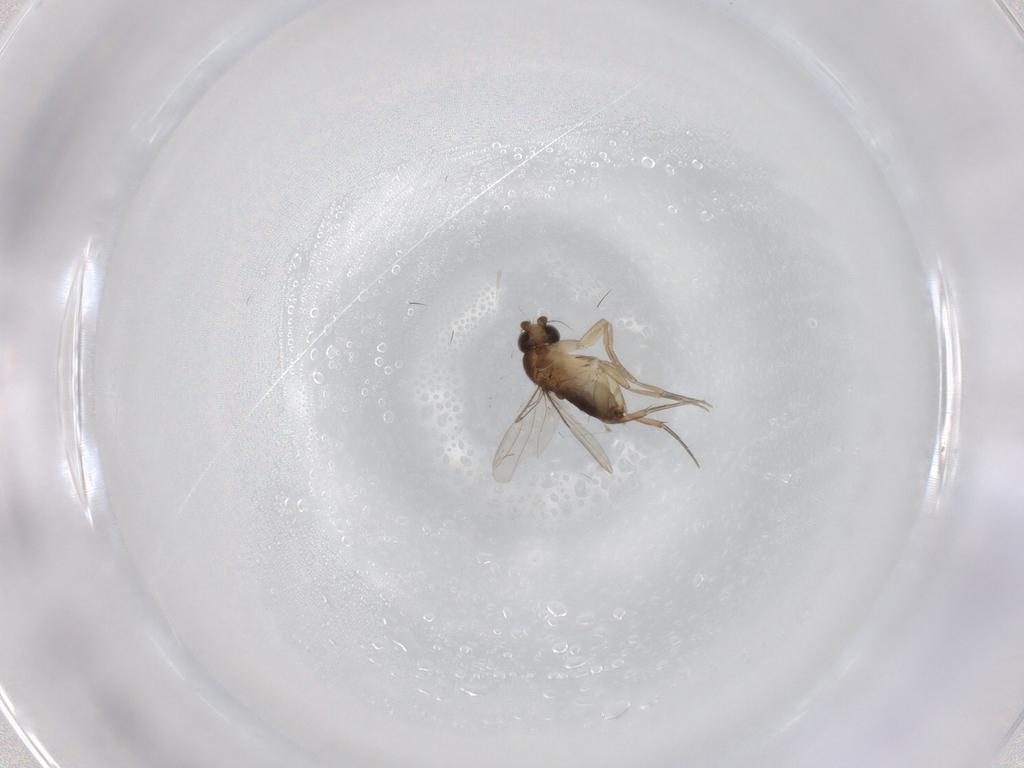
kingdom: Animalia
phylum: Arthropoda
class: Insecta
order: Diptera
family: Phoridae
